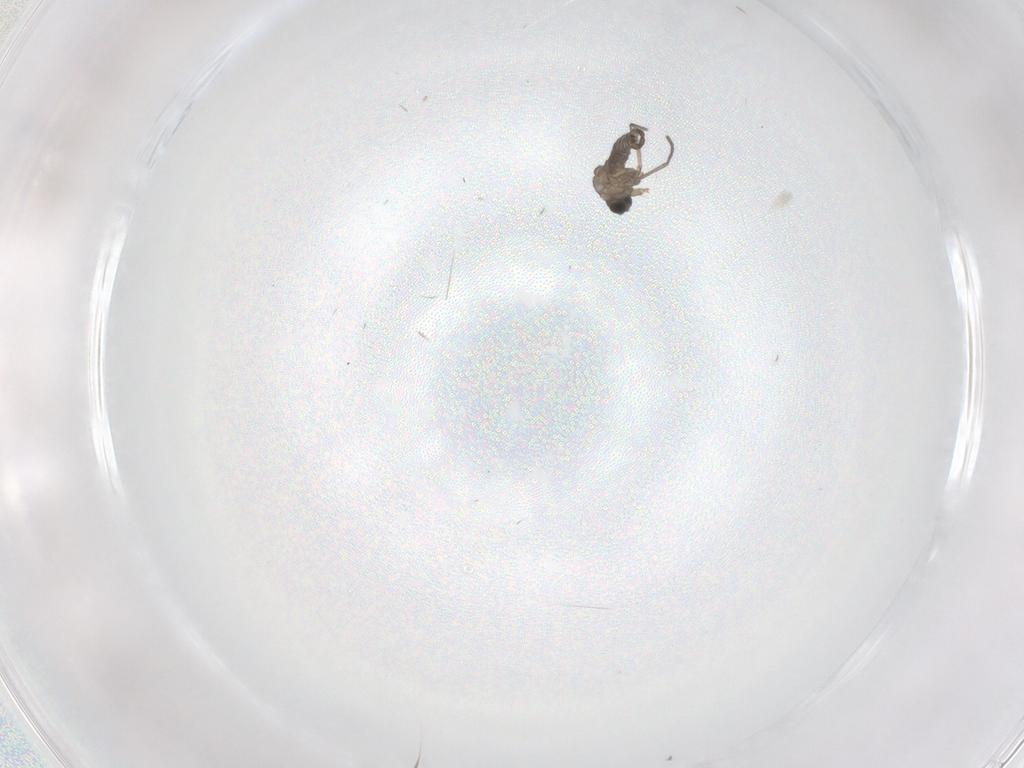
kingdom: Animalia
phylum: Arthropoda
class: Insecta
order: Diptera
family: Sciaridae
